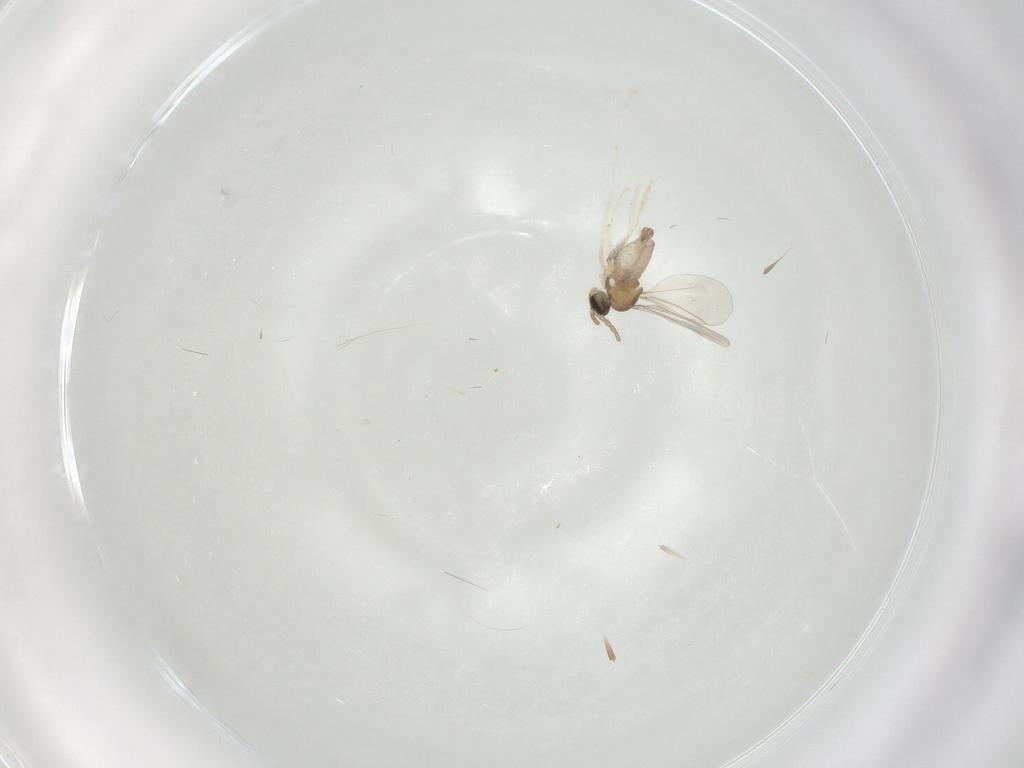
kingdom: Animalia
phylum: Arthropoda
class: Insecta
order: Diptera
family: Cecidomyiidae
